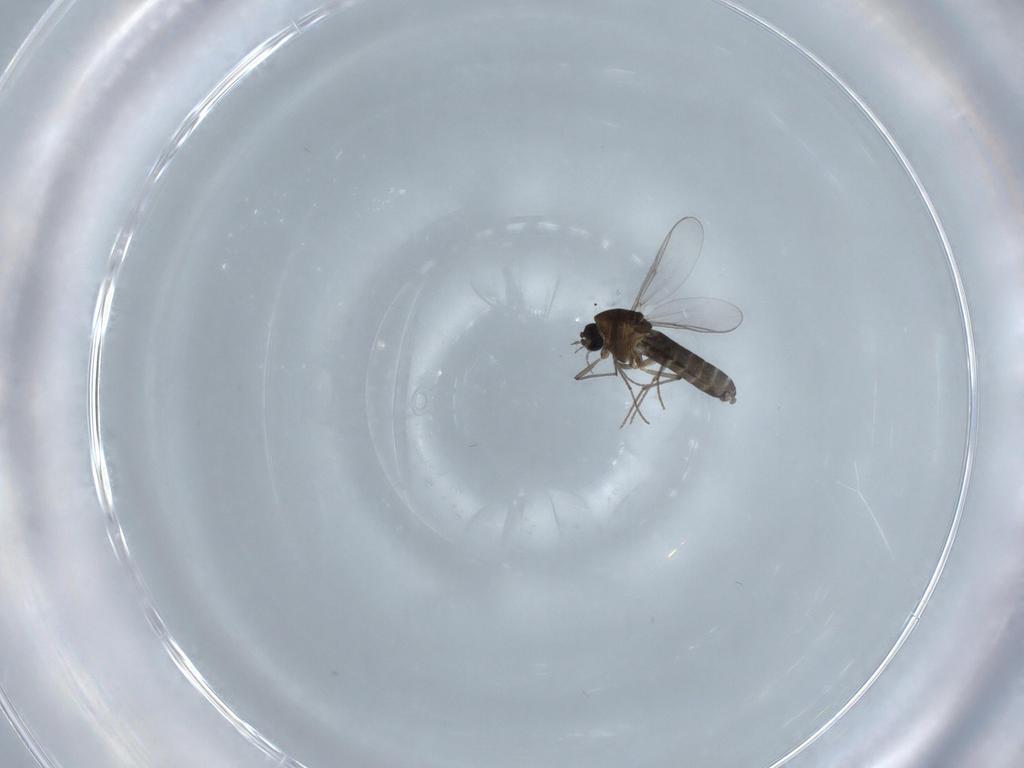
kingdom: Animalia
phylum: Arthropoda
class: Insecta
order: Diptera
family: Chironomidae
